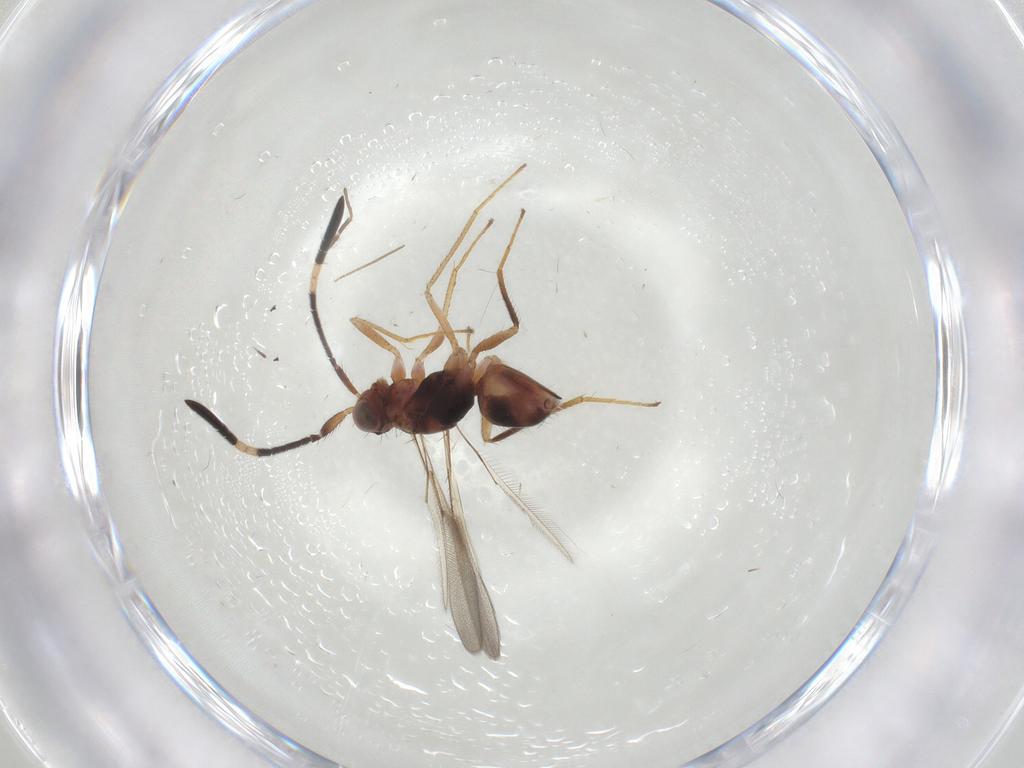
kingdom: Animalia
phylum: Arthropoda
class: Insecta
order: Hymenoptera
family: Mymaridae
